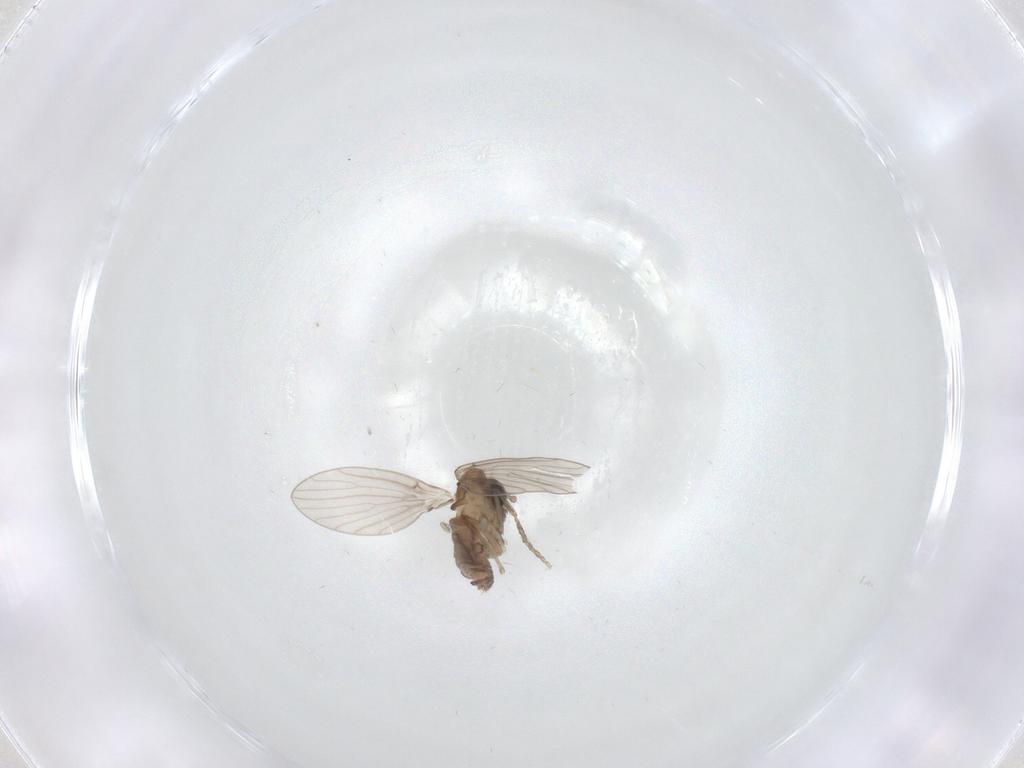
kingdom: Animalia
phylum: Arthropoda
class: Insecta
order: Diptera
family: Psychodidae
